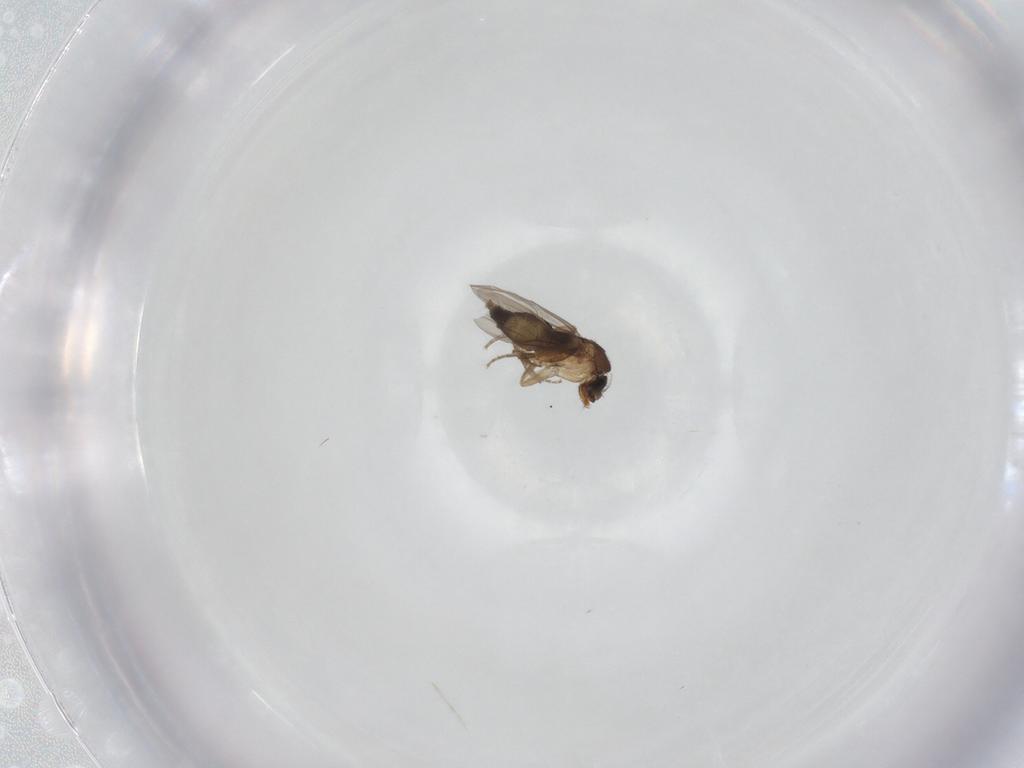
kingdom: Animalia
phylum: Arthropoda
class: Insecta
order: Diptera
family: Phoridae
